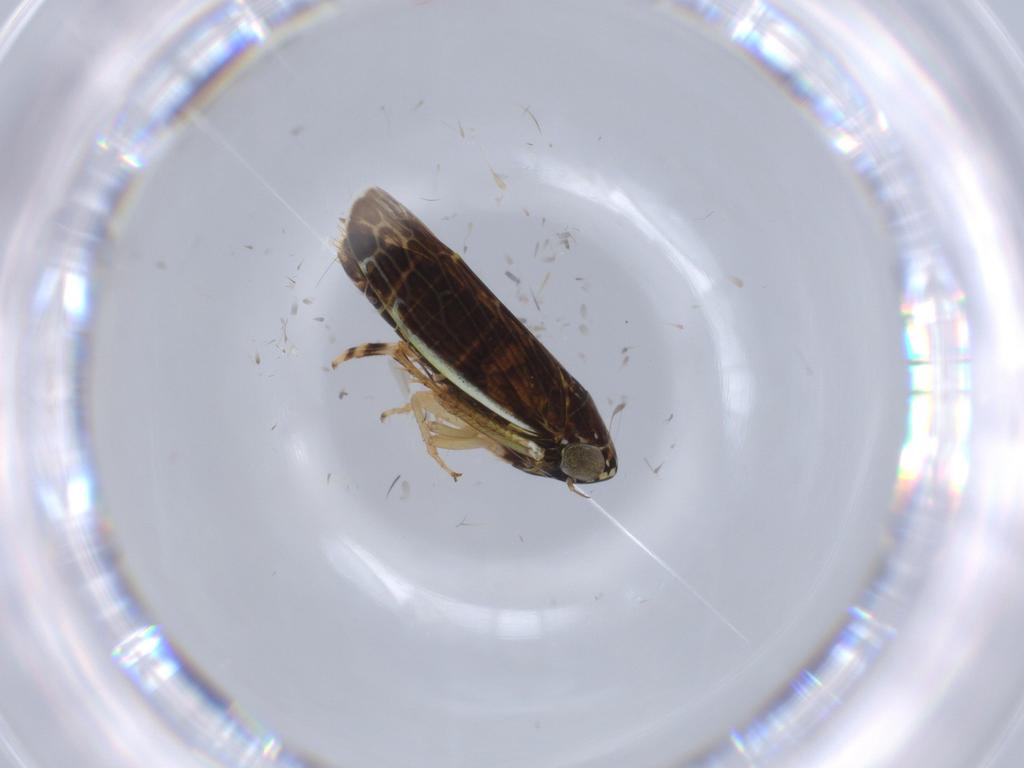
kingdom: Animalia
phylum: Arthropoda
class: Insecta
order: Hemiptera
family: Cicadellidae
